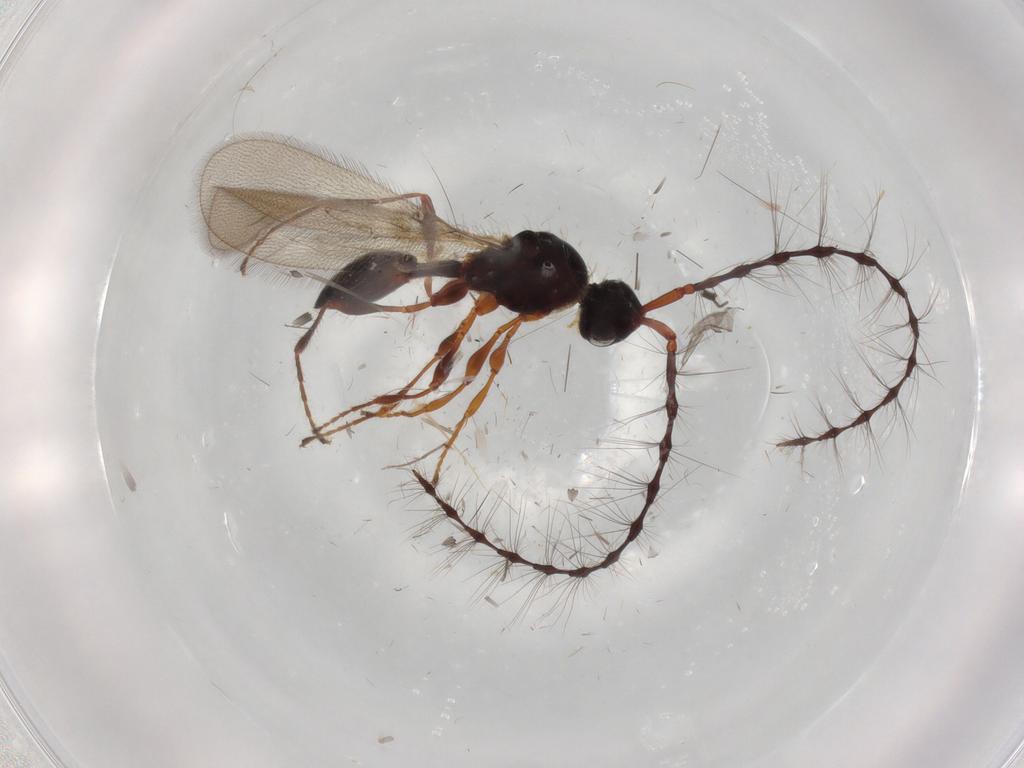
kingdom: Animalia
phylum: Arthropoda
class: Insecta
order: Hymenoptera
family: Diapriidae
